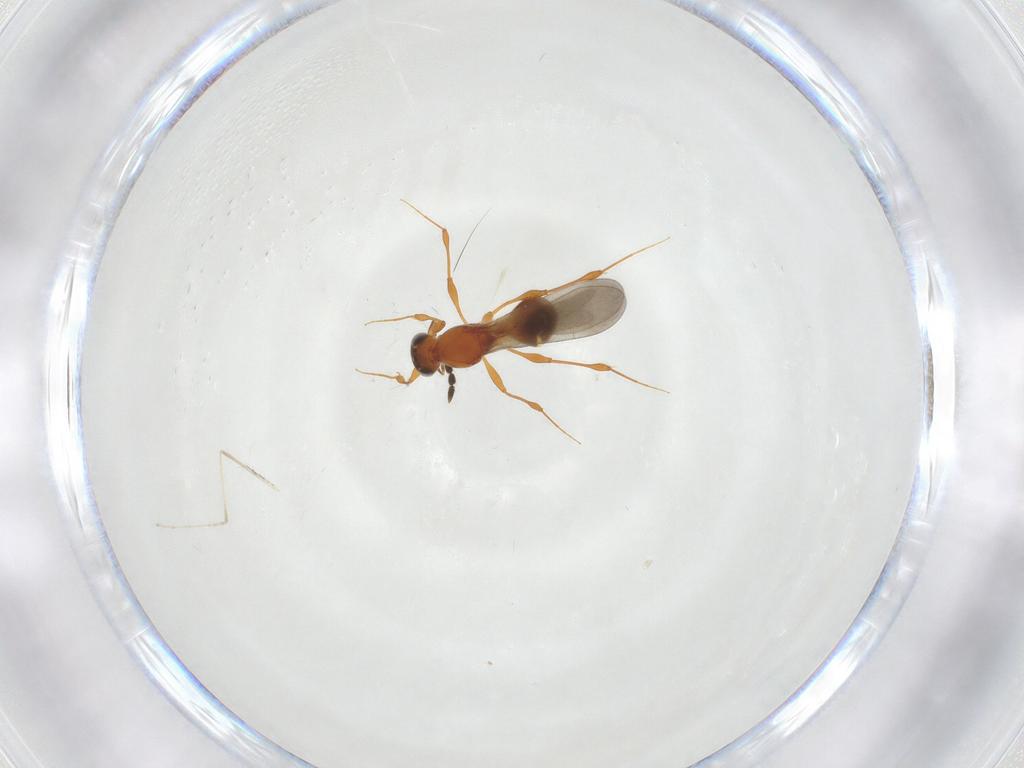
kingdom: Animalia
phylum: Arthropoda
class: Insecta
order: Hymenoptera
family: Platygastridae
